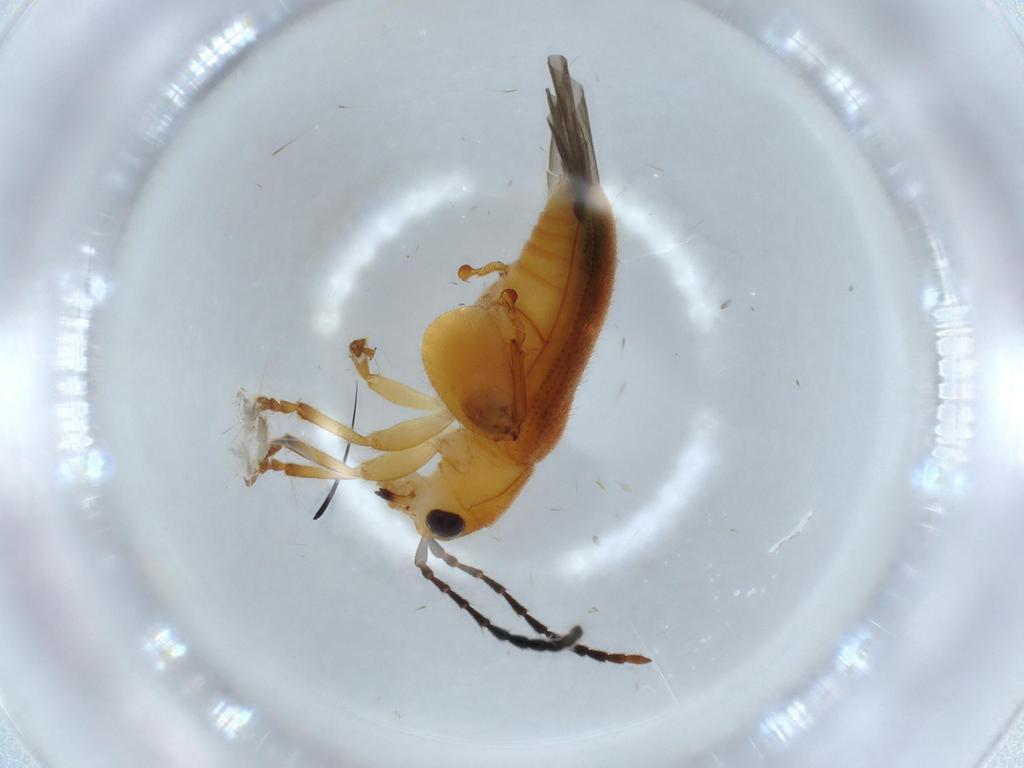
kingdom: Animalia
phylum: Arthropoda
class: Insecta
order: Coleoptera
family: Chrysomelidae
